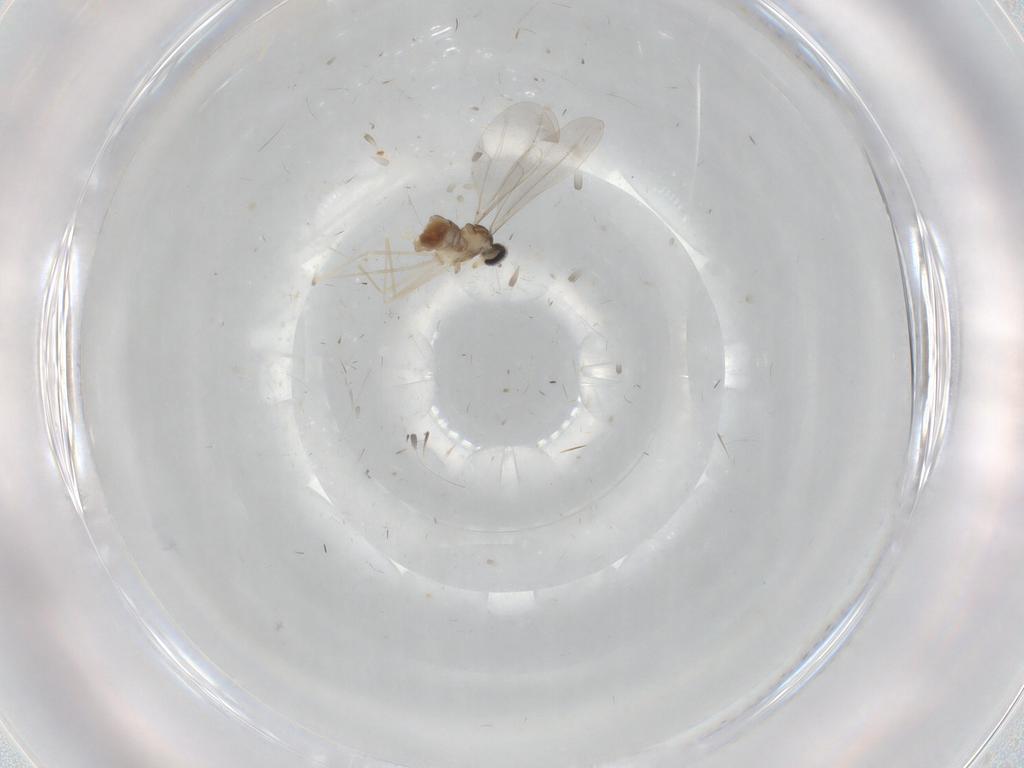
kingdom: Animalia
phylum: Arthropoda
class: Insecta
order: Diptera
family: Cecidomyiidae
